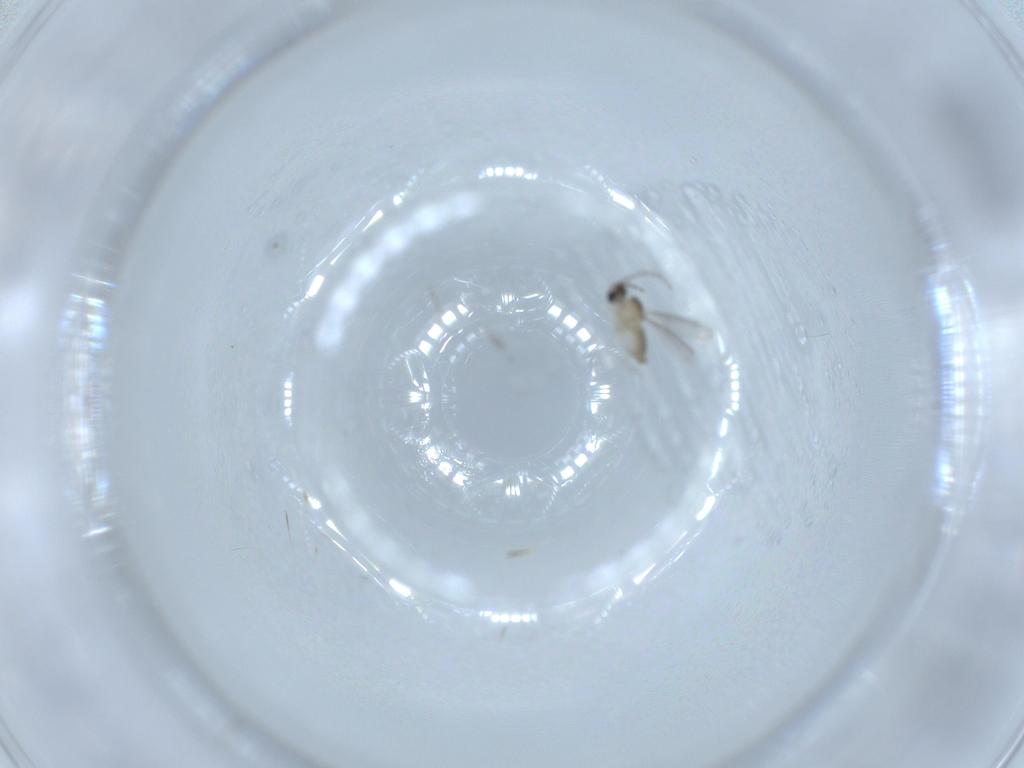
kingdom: Animalia
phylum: Arthropoda
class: Insecta
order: Diptera
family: Cecidomyiidae
